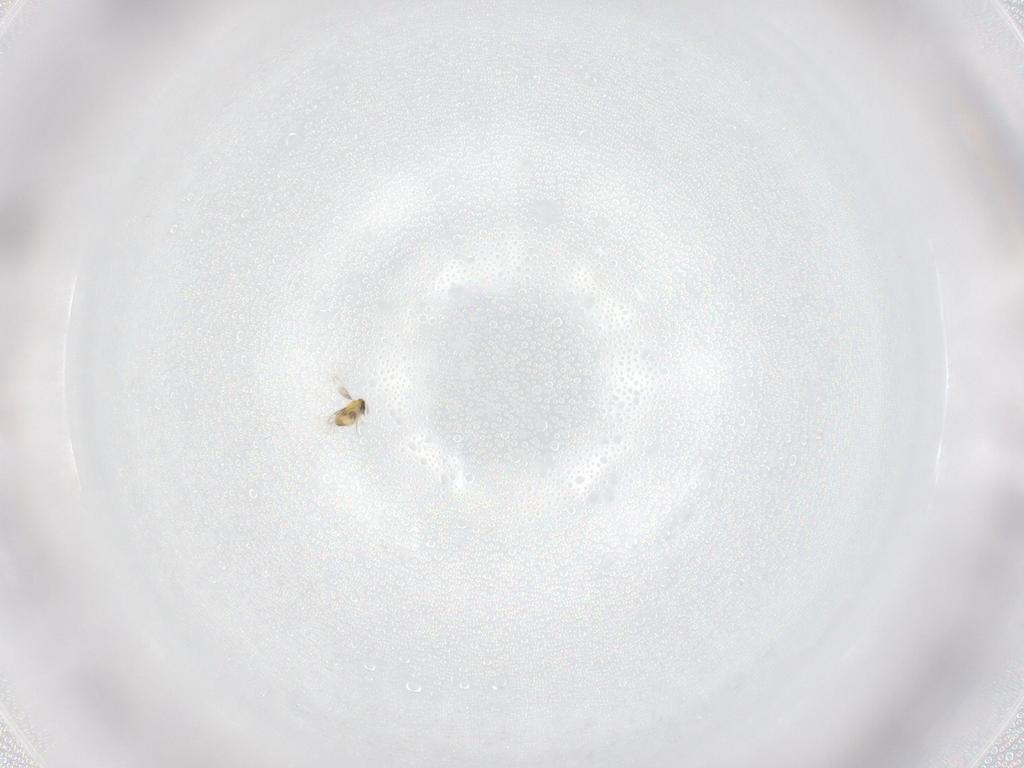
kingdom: Animalia
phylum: Arthropoda
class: Insecta
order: Hymenoptera
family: Trichogrammatidae
